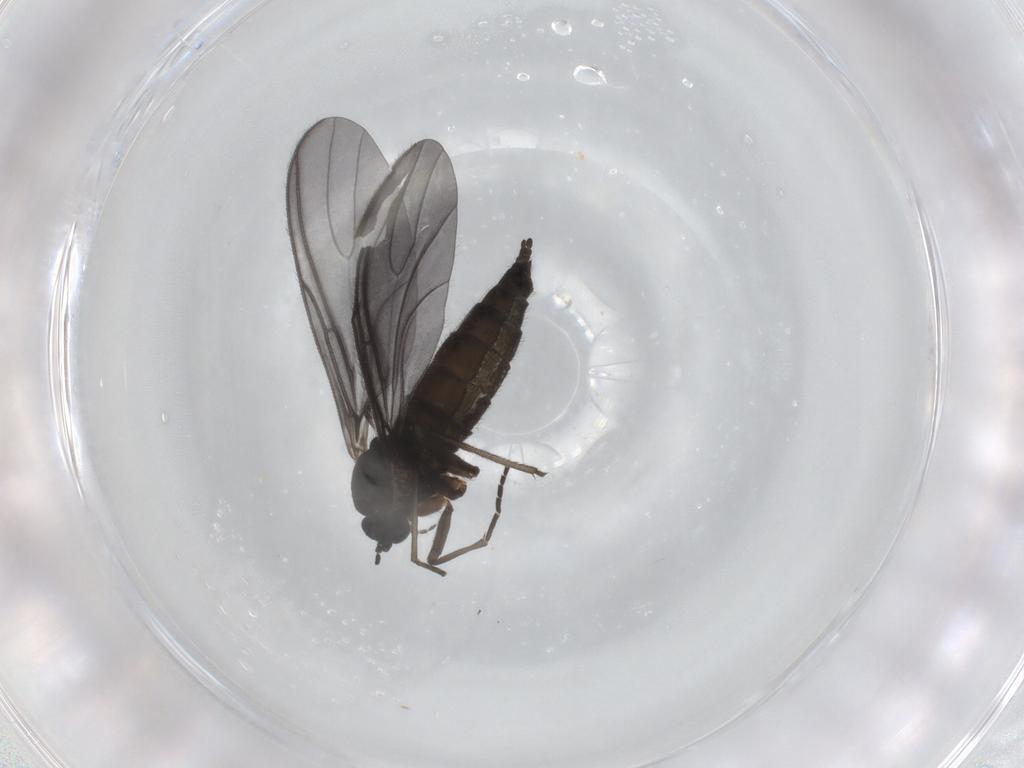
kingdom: Animalia
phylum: Arthropoda
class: Insecta
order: Diptera
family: Sciaridae
